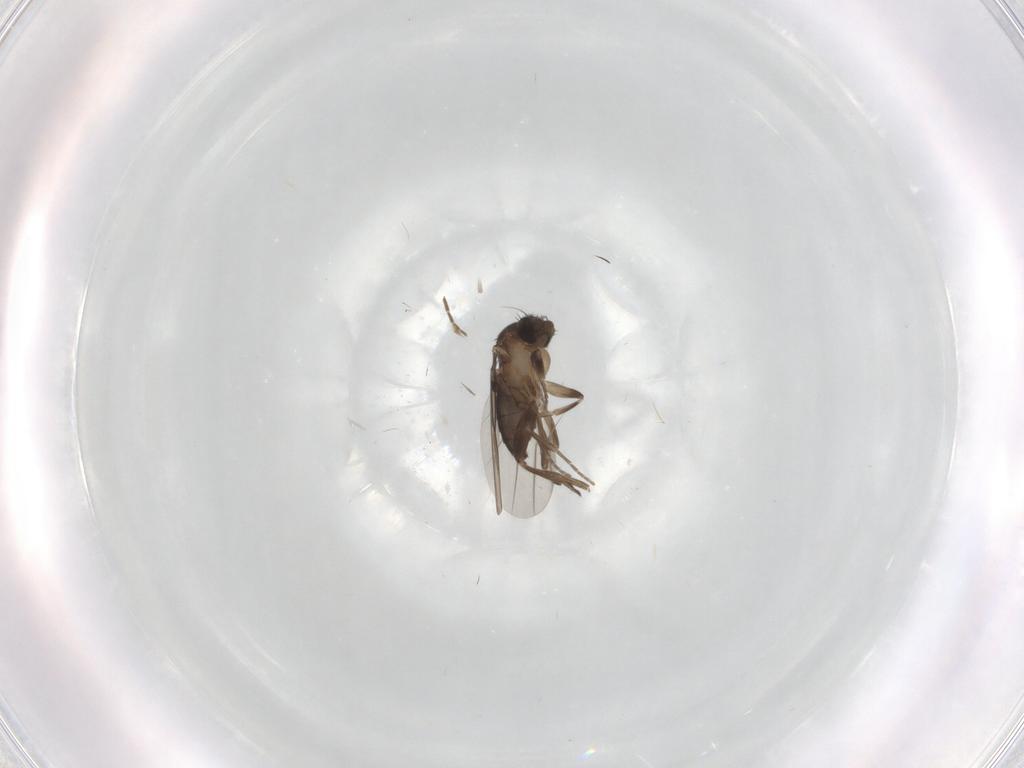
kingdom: Animalia
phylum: Arthropoda
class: Insecta
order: Diptera
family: Phoridae
